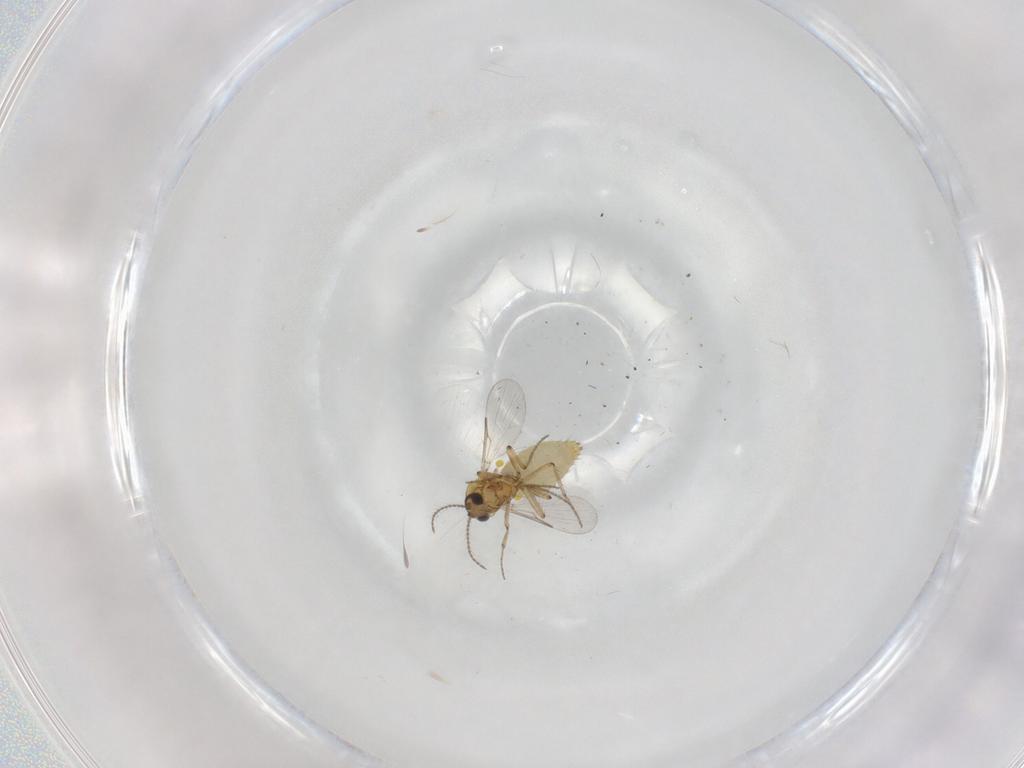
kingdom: Animalia
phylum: Arthropoda
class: Insecta
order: Diptera
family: Ceratopogonidae
